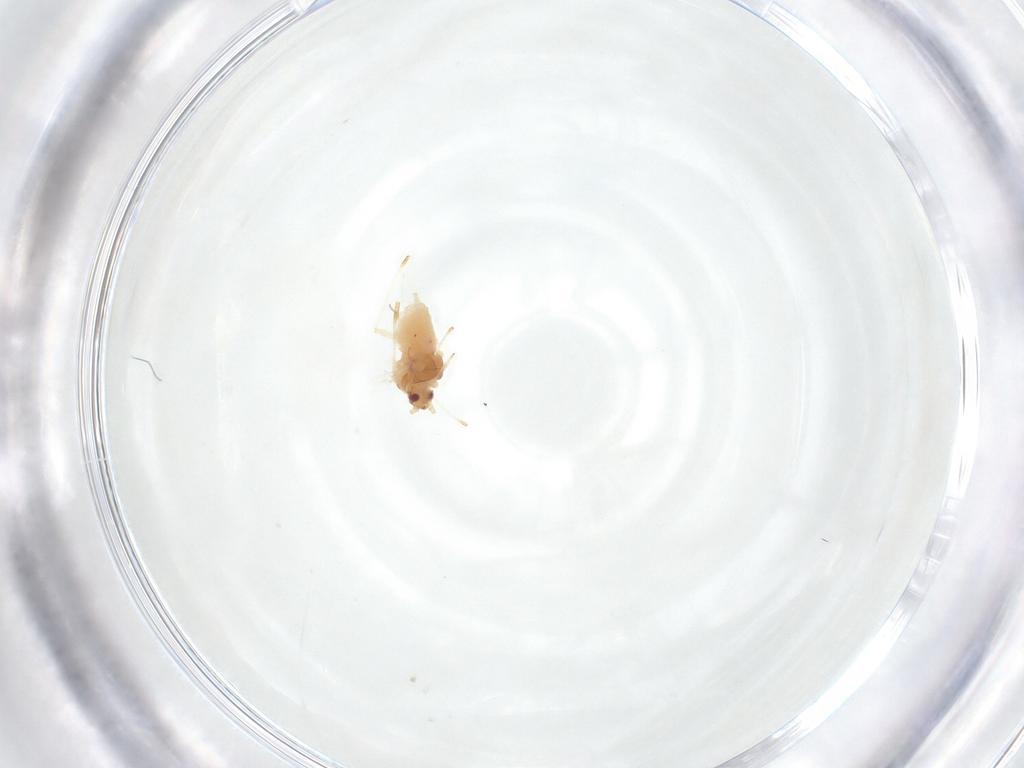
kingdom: Animalia
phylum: Arthropoda
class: Insecta
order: Hemiptera
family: Aphididae
